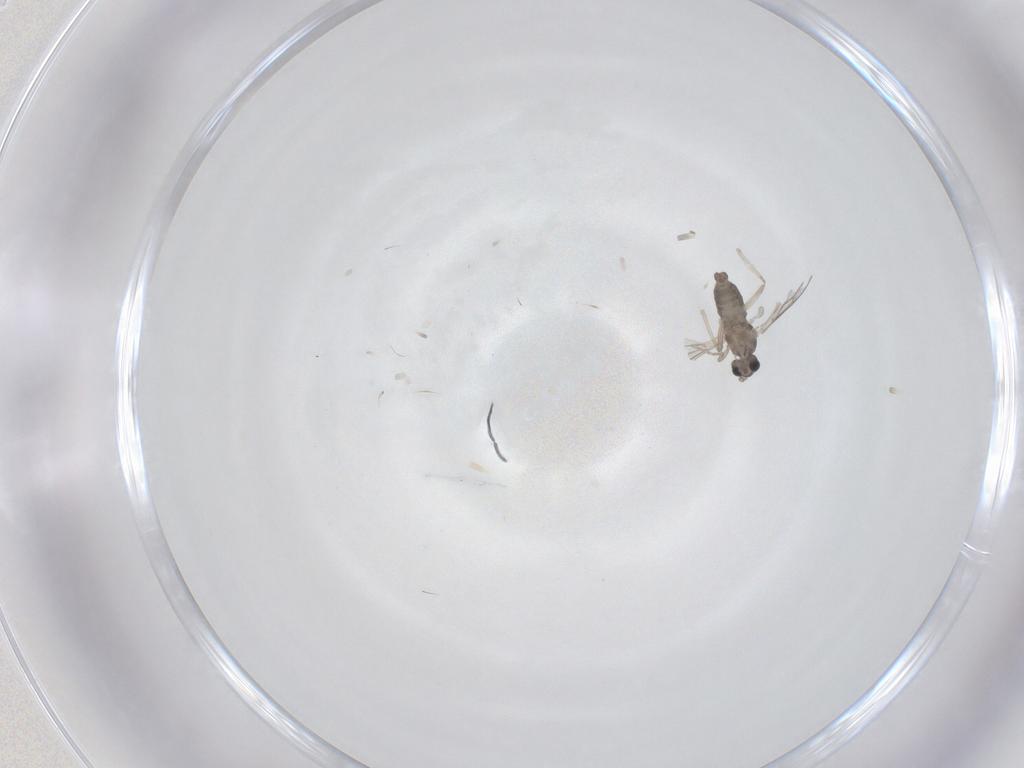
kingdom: Animalia
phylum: Arthropoda
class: Insecta
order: Diptera
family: Cecidomyiidae
